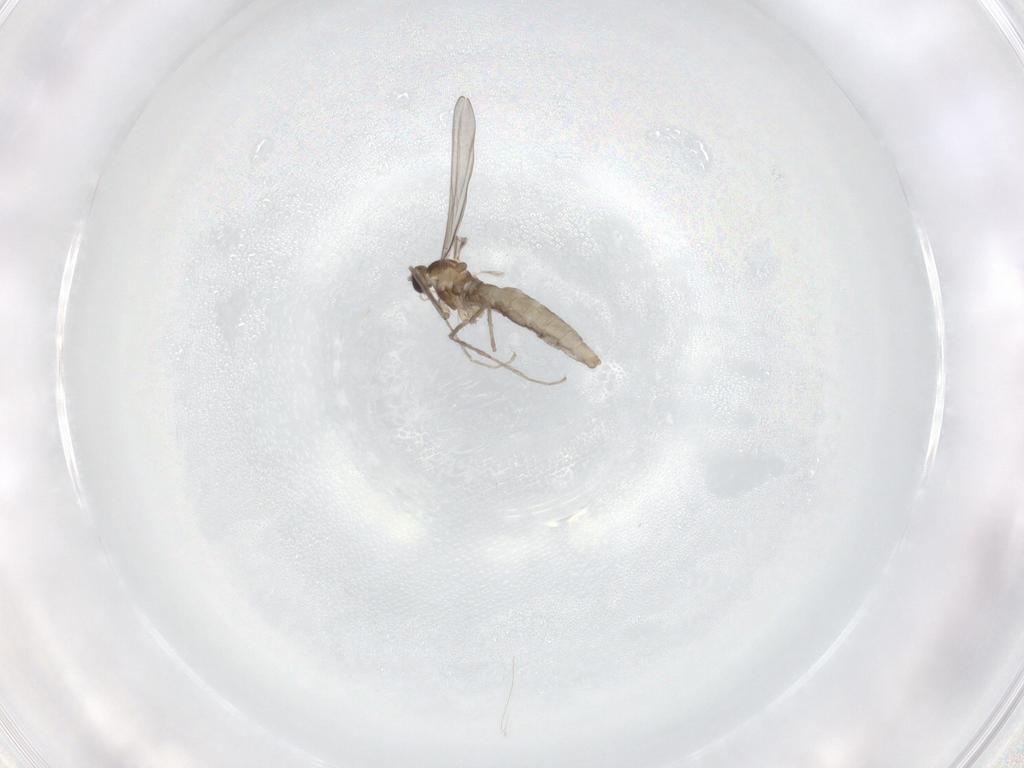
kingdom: Animalia
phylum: Arthropoda
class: Insecta
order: Diptera
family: Cecidomyiidae
